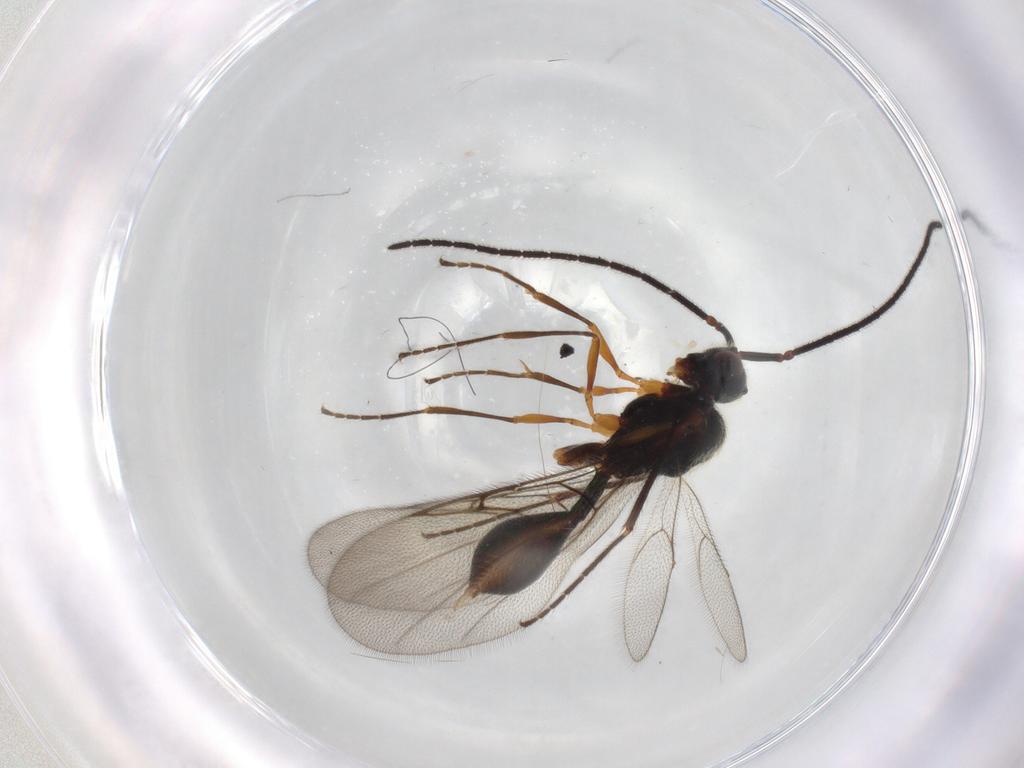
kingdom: Animalia
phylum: Arthropoda
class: Insecta
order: Hymenoptera
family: Diapriidae
